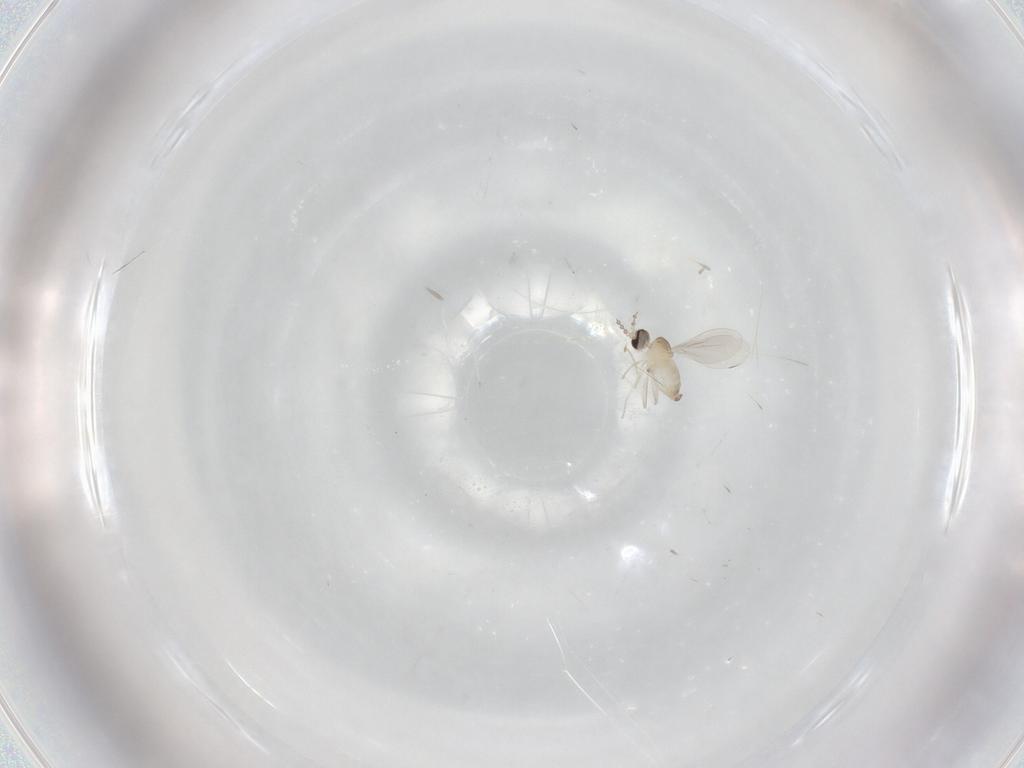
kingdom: Animalia
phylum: Arthropoda
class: Insecta
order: Diptera
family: Cecidomyiidae
